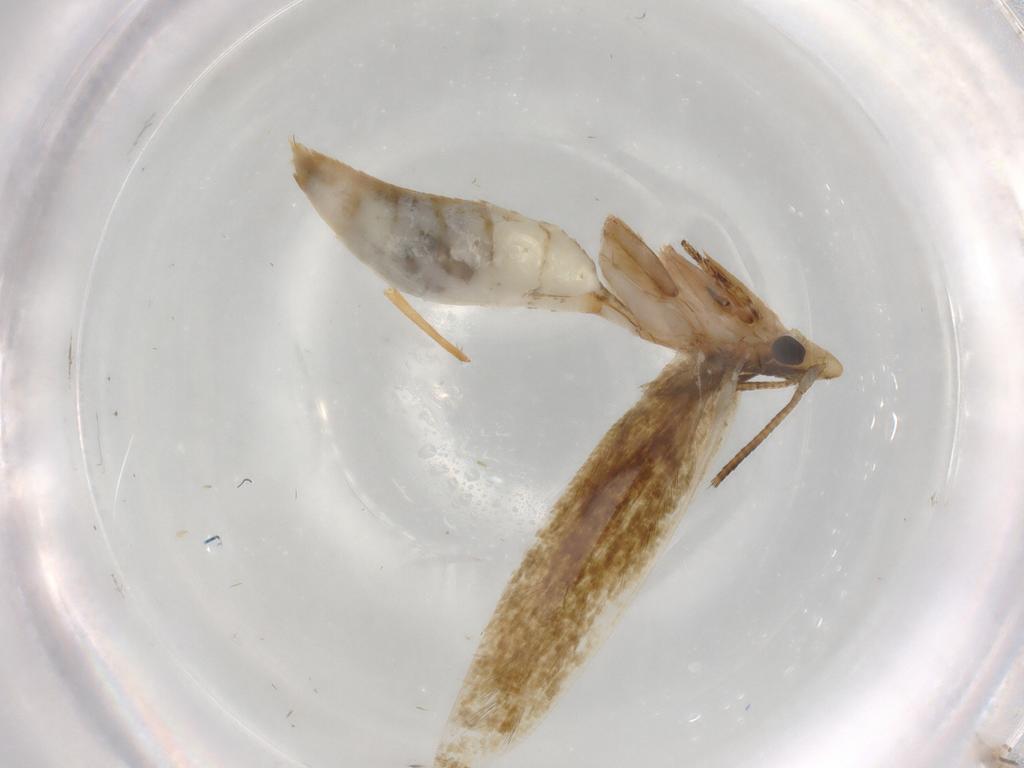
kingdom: Animalia
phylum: Arthropoda
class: Insecta
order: Lepidoptera
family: Tineidae
